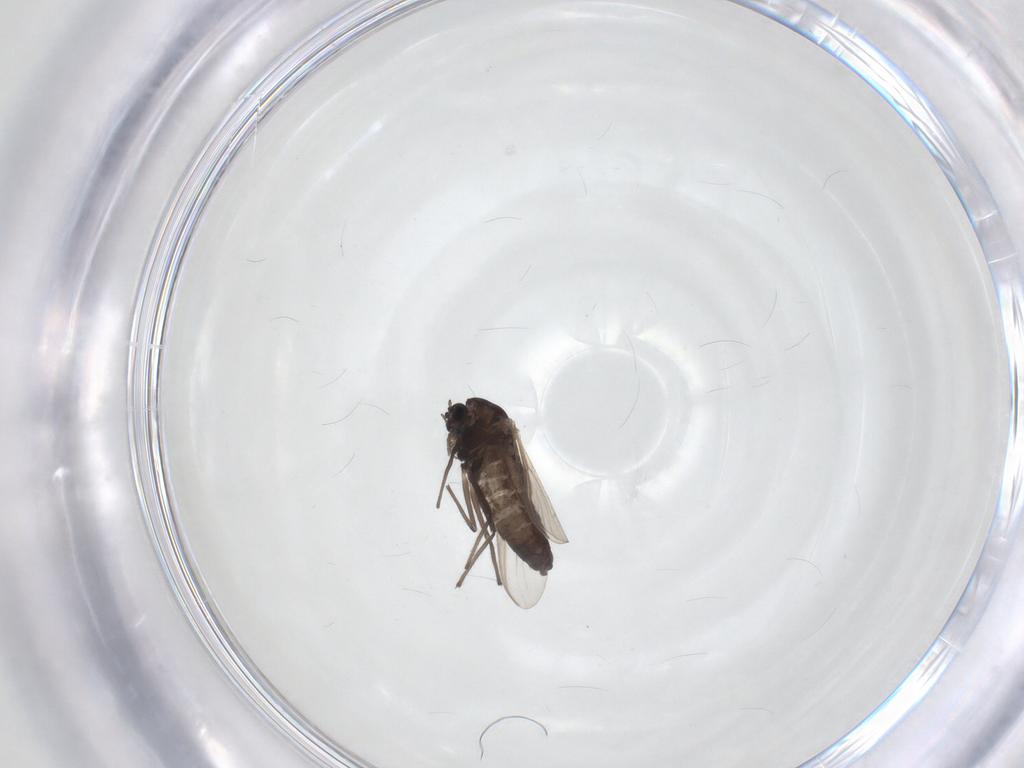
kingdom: Animalia
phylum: Arthropoda
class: Insecta
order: Diptera
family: Chironomidae
